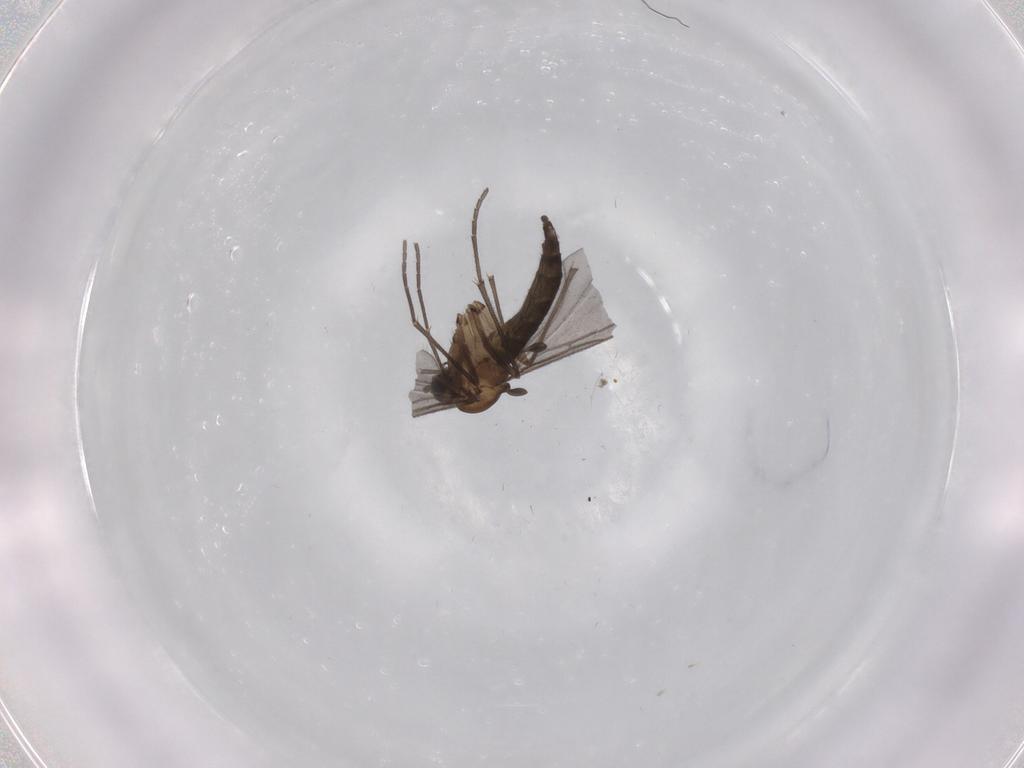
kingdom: Animalia
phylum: Arthropoda
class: Insecta
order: Diptera
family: Stratiomyidae
